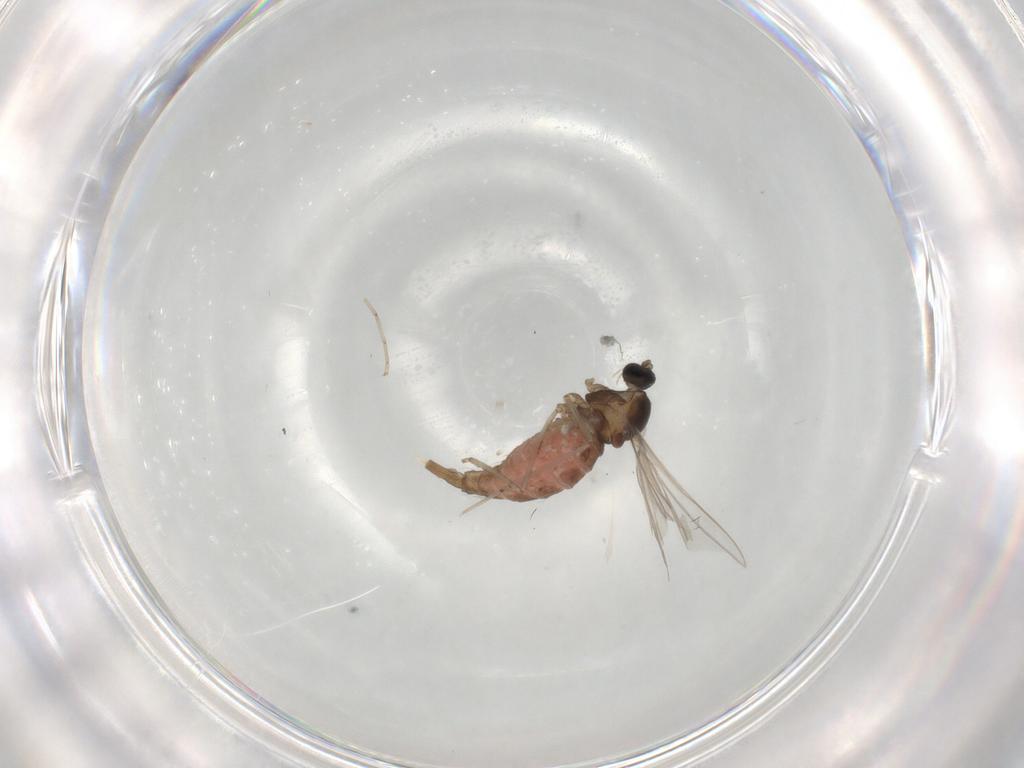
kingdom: Animalia
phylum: Arthropoda
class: Insecta
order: Diptera
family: Cecidomyiidae
